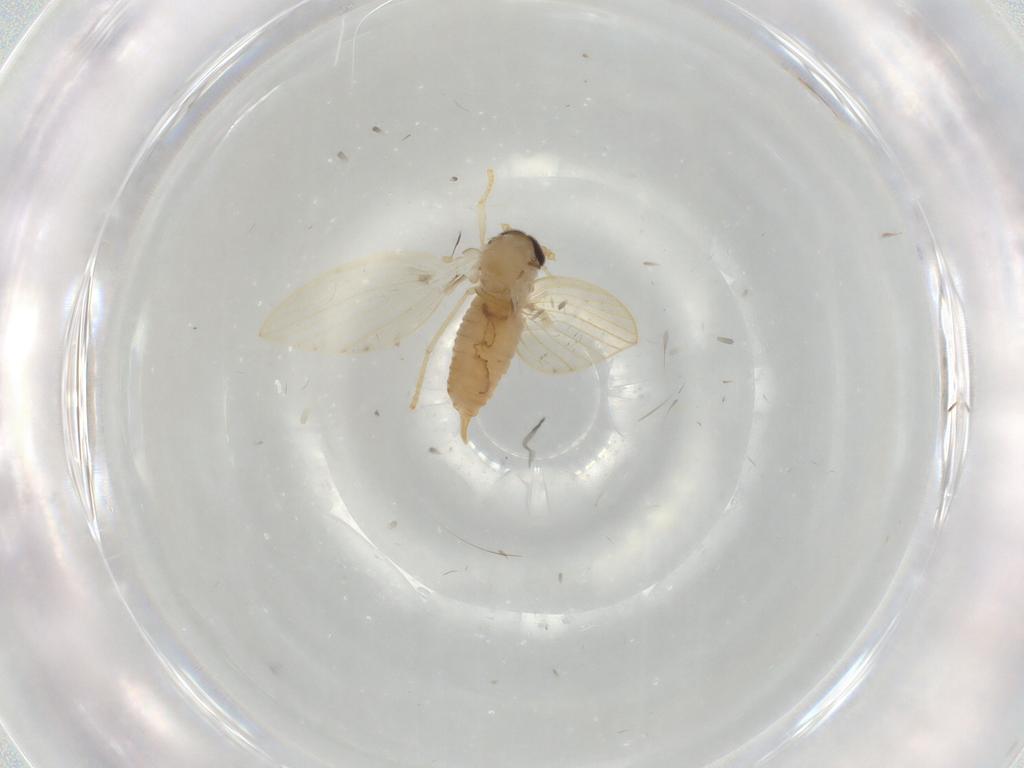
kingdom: Animalia
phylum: Arthropoda
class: Insecta
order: Diptera
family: Psychodidae
